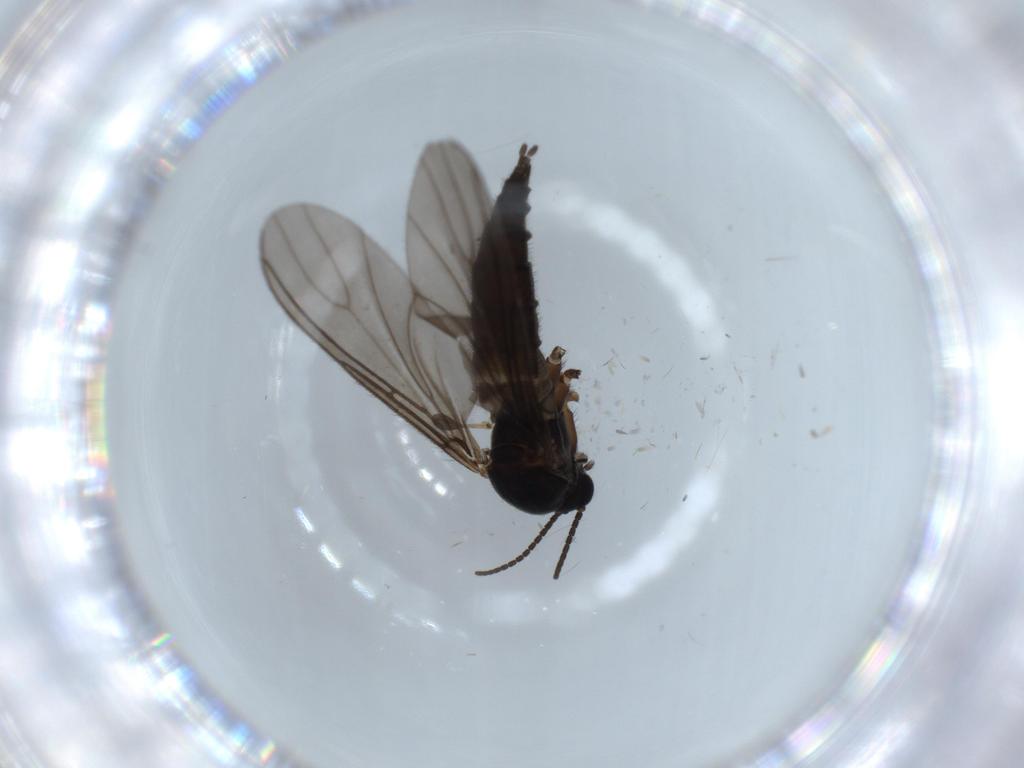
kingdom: Animalia
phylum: Arthropoda
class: Insecta
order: Diptera
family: Sciaridae
